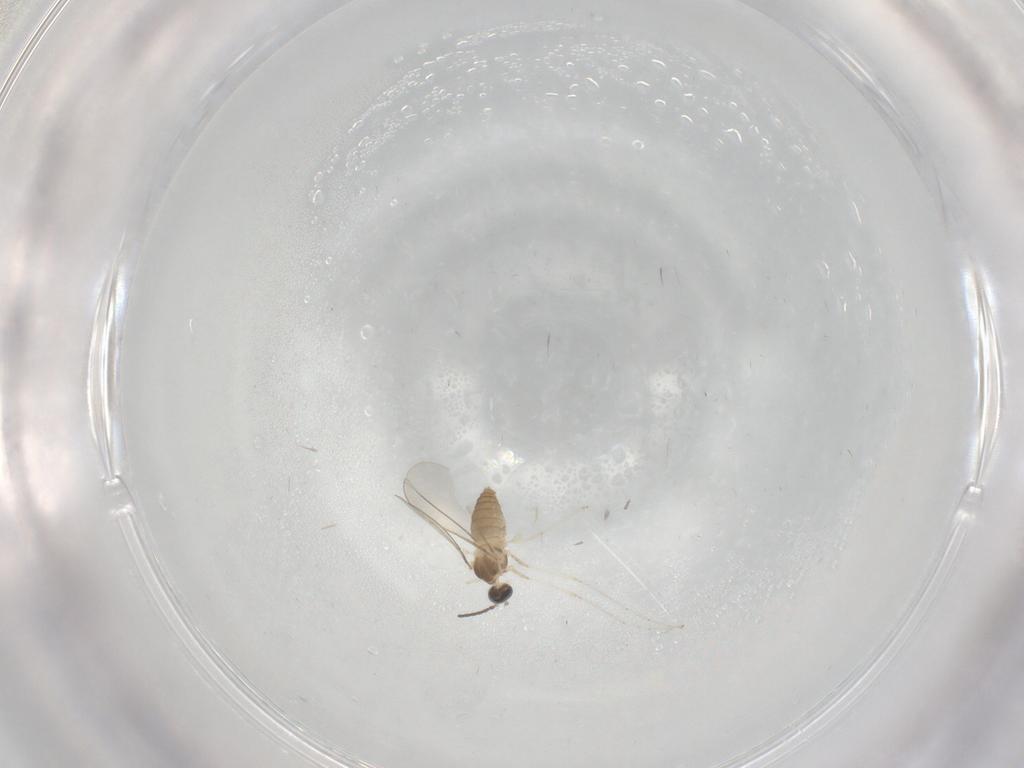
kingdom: Animalia
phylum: Arthropoda
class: Insecta
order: Diptera
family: Cecidomyiidae
